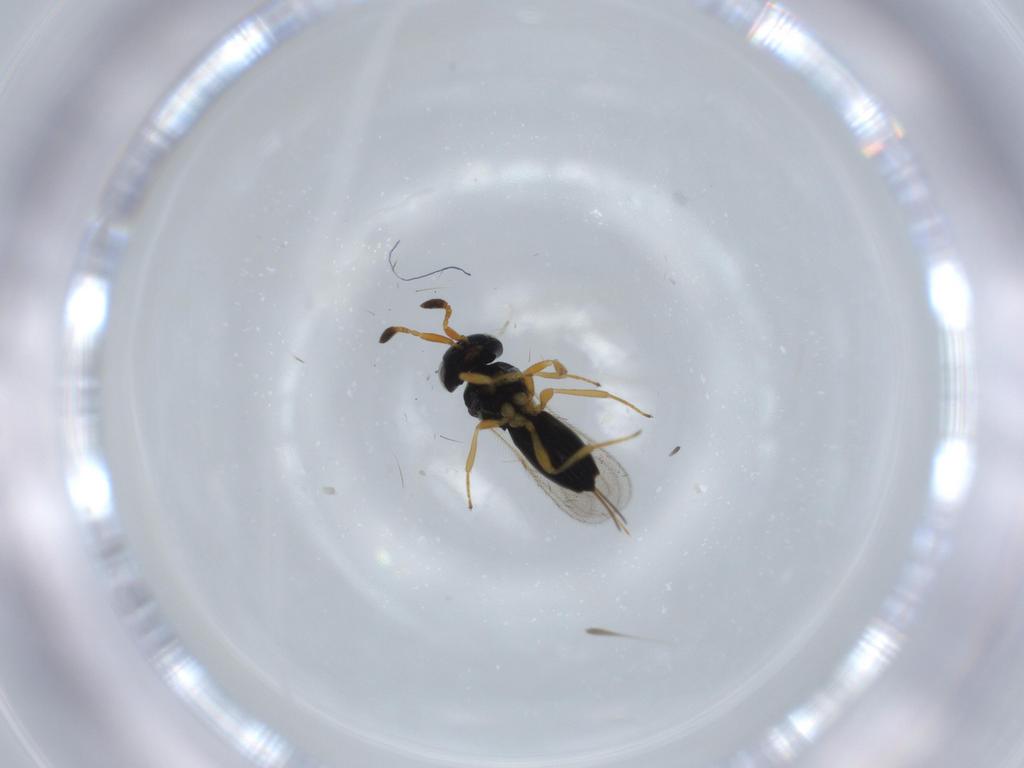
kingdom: Animalia
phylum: Arthropoda
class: Insecta
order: Hymenoptera
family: Scelionidae
